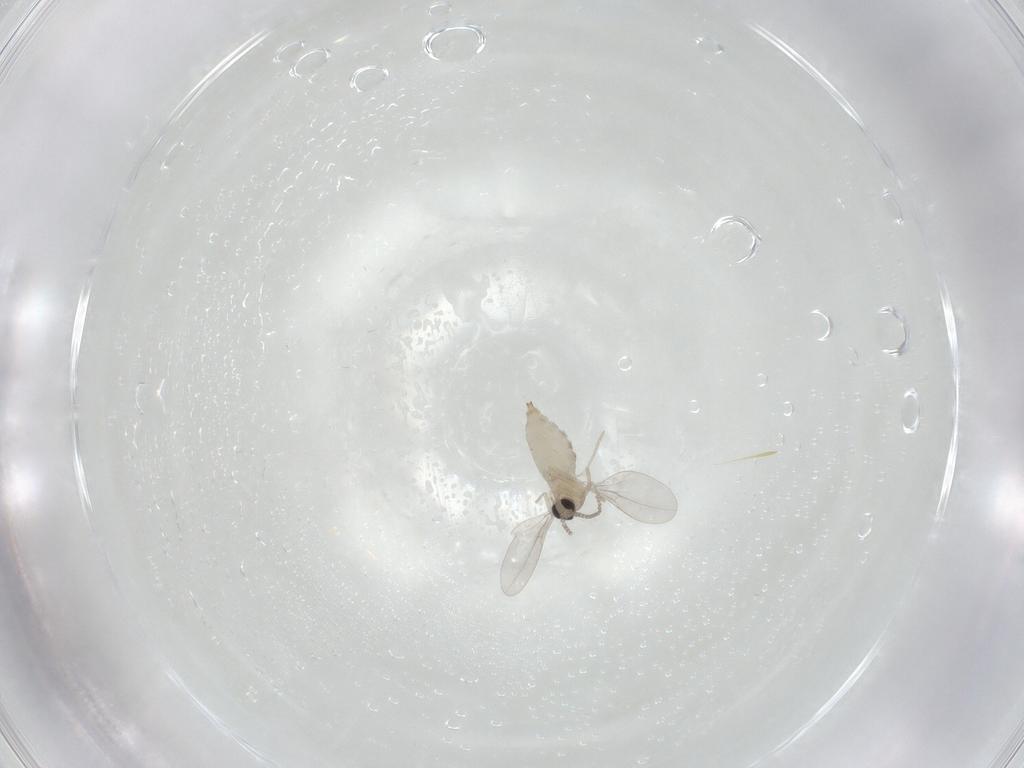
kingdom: Animalia
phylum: Arthropoda
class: Insecta
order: Diptera
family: Cecidomyiidae
